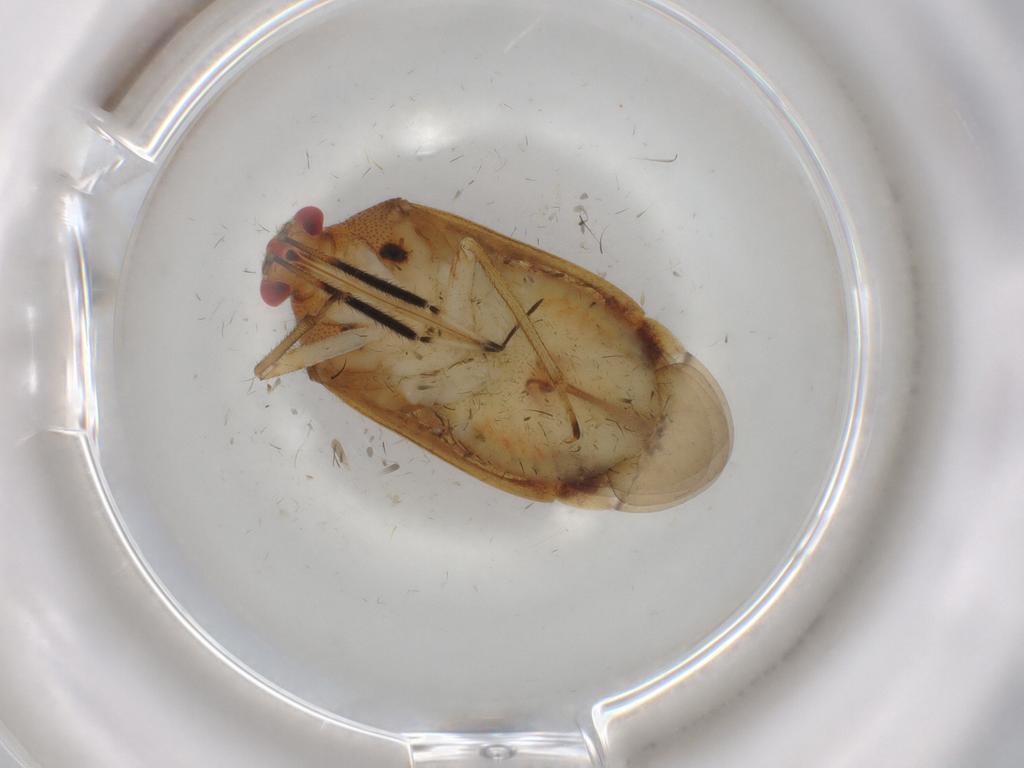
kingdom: Animalia
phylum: Arthropoda
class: Insecta
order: Hemiptera
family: Miridae
